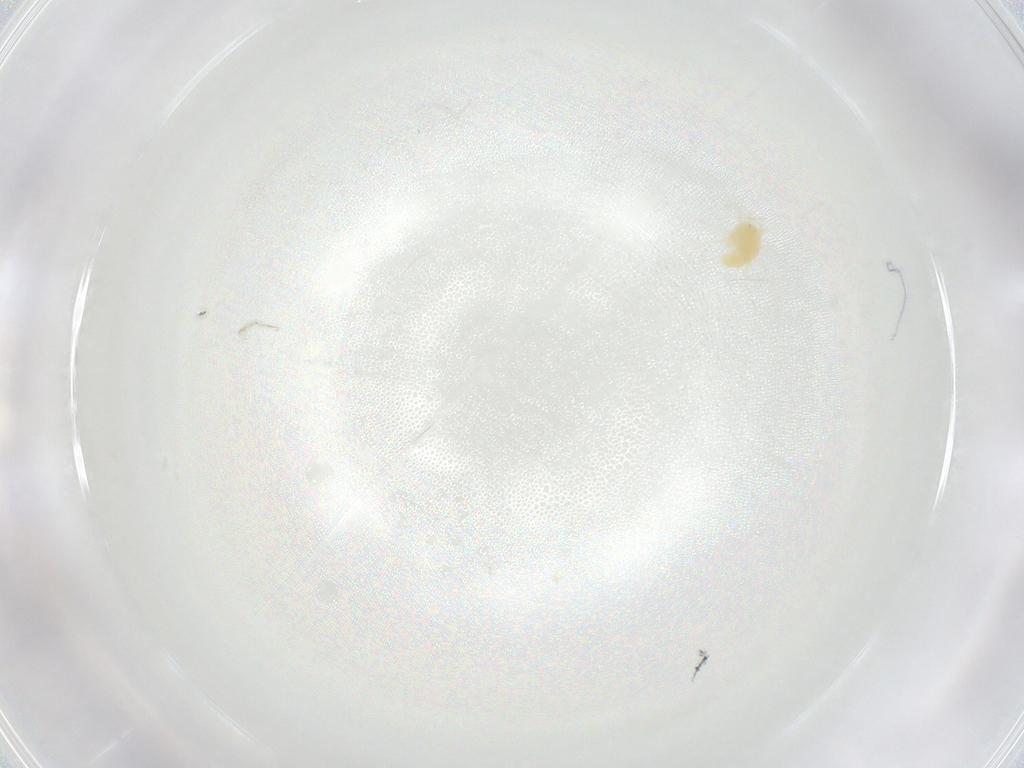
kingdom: Animalia
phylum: Arthropoda
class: Arachnida
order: Trombidiformes
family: Tetranychidae
